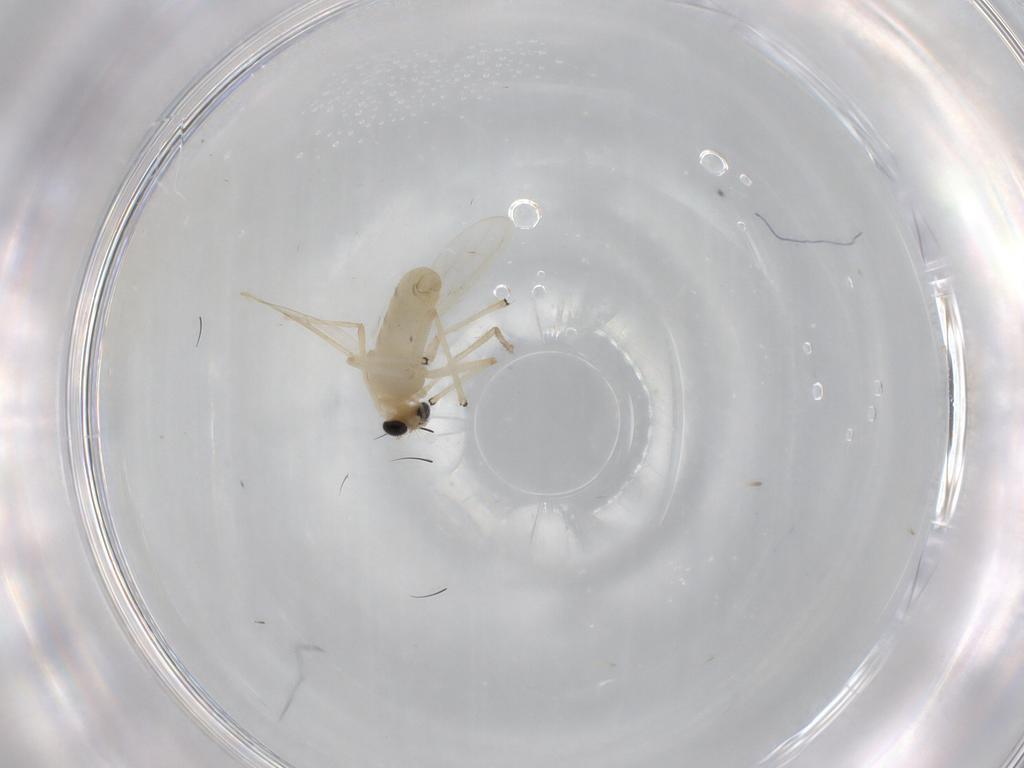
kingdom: Animalia
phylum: Arthropoda
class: Insecta
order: Diptera
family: Chironomidae
